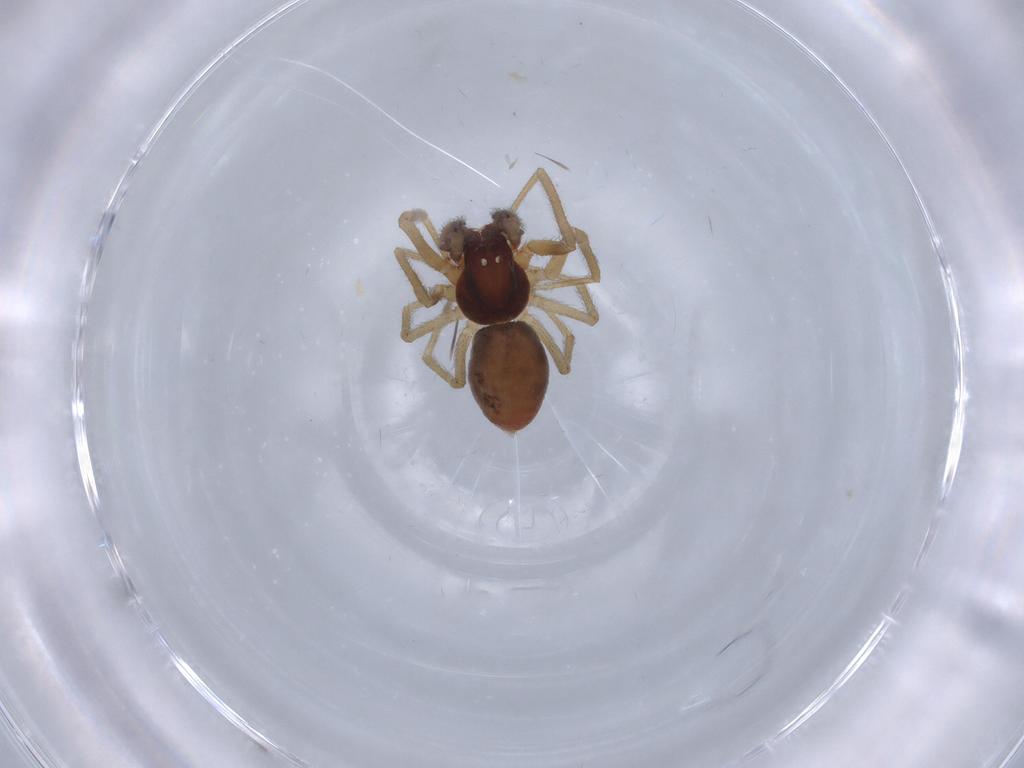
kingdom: Animalia
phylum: Arthropoda
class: Arachnida
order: Araneae
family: Dictynidae
